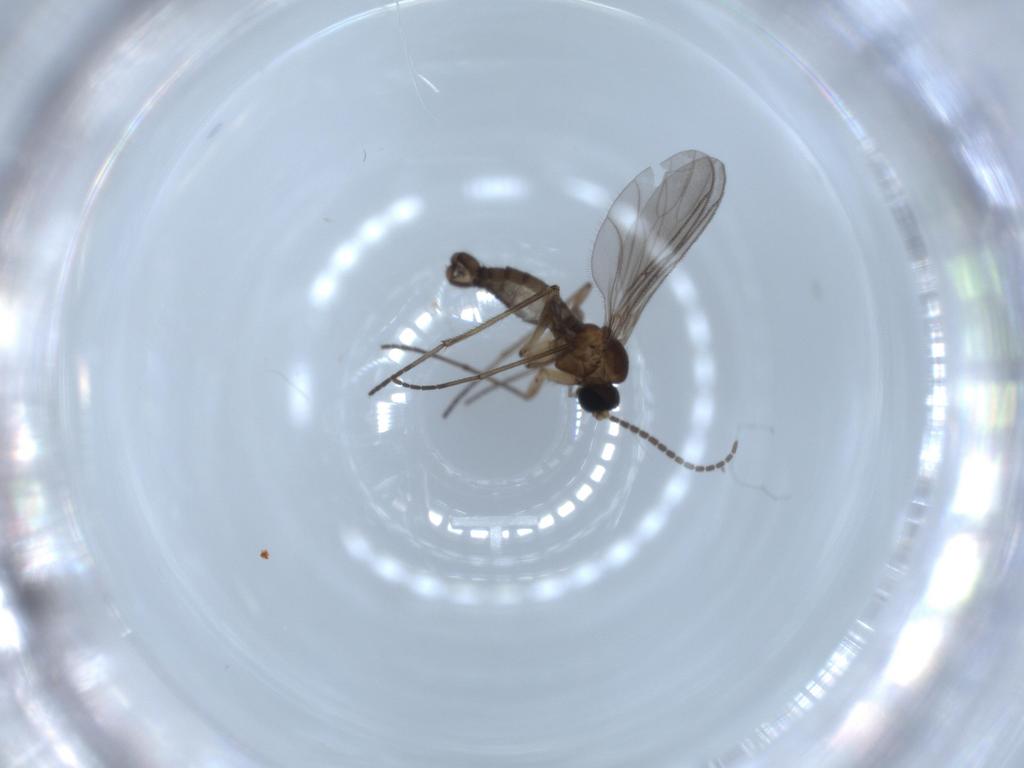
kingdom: Animalia
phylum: Arthropoda
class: Insecta
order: Diptera
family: Sciaridae
